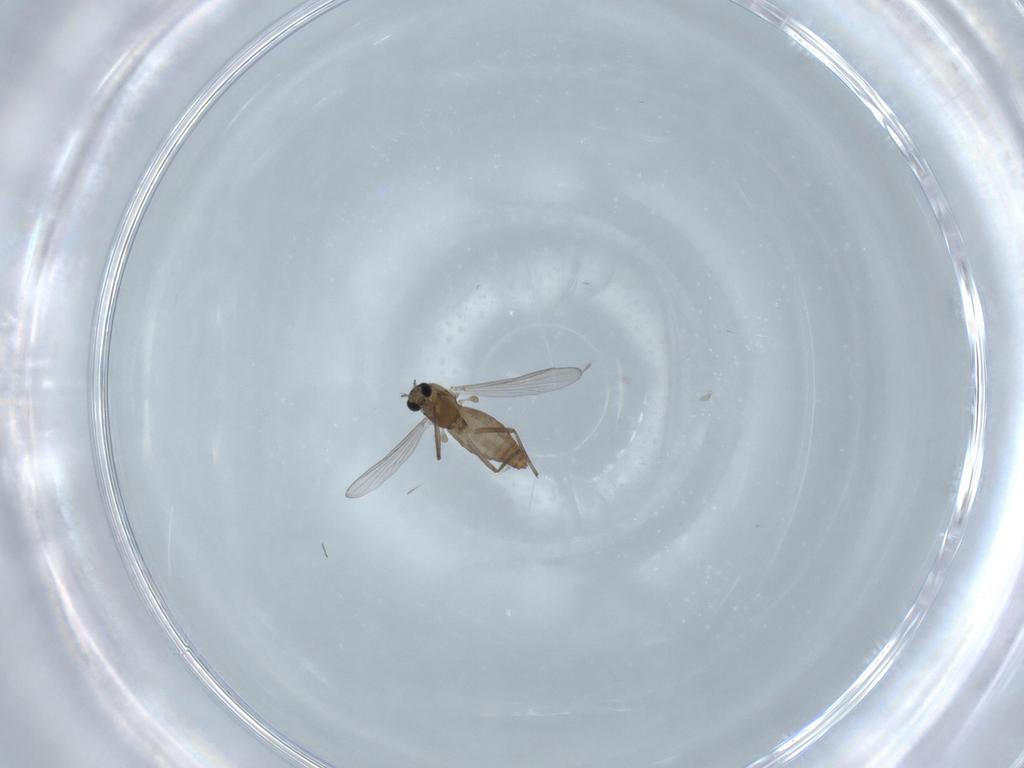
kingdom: Animalia
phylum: Arthropoda
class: Insecta
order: Diptera
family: Chironomidae
